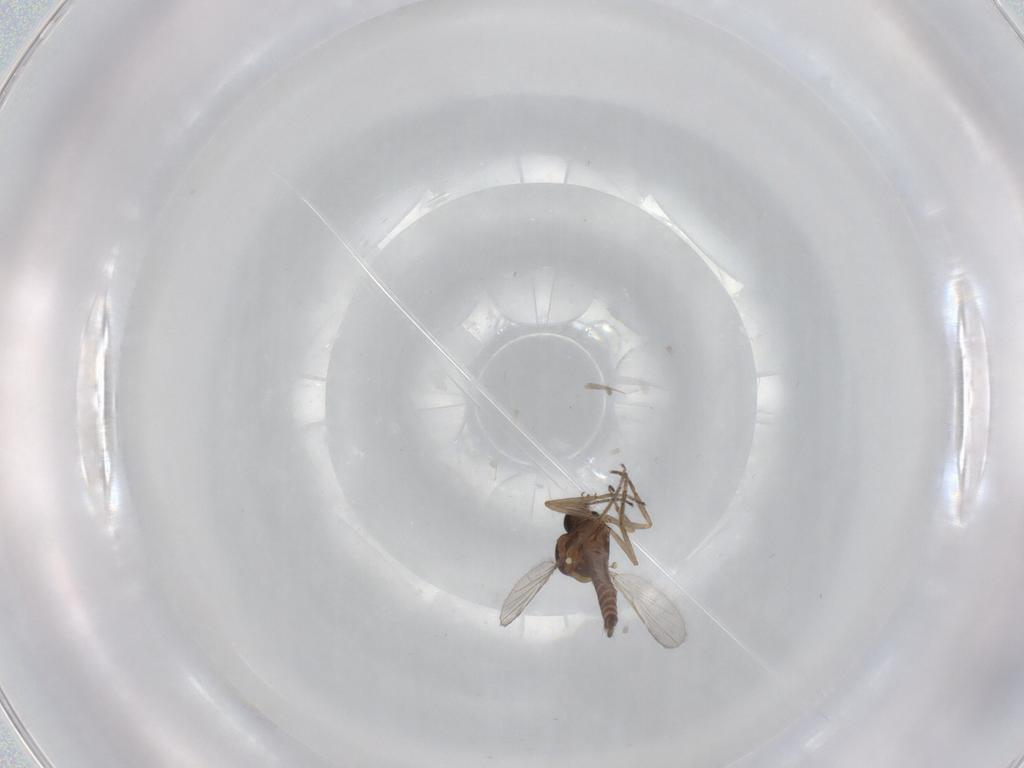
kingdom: Animalia
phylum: Arthropoda
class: Insecta
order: Diptera
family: Ceratopogonidae
